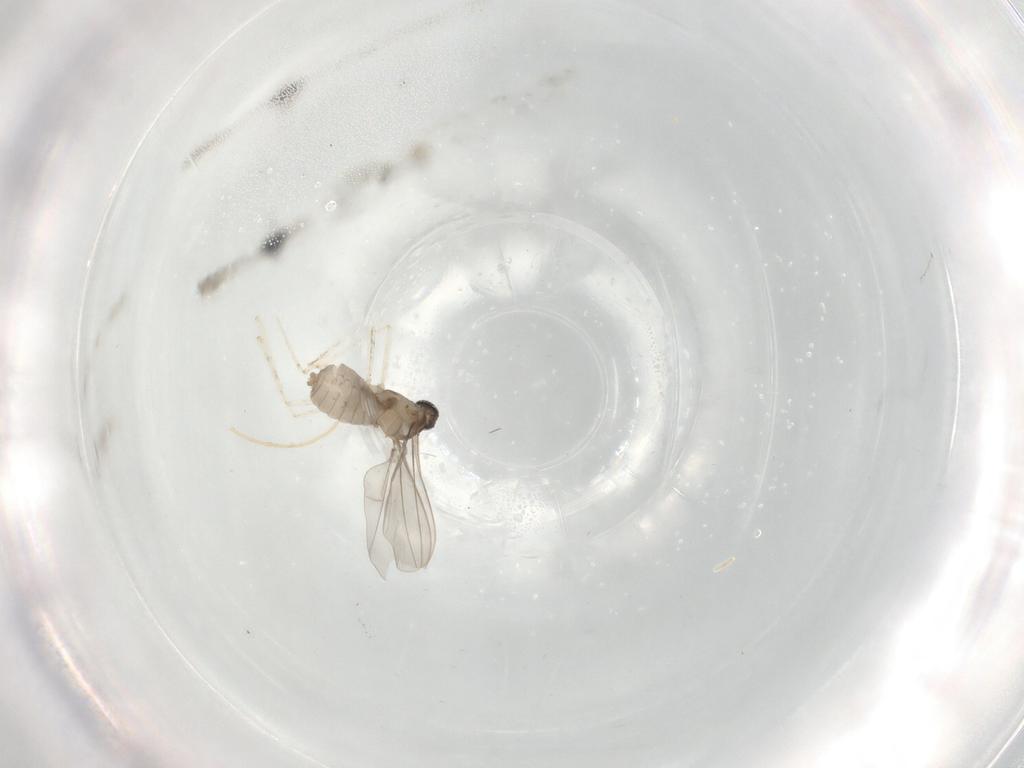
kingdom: Animalia
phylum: Arthropoda
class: Insecta
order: Diptera
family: Cecidomyiidae
